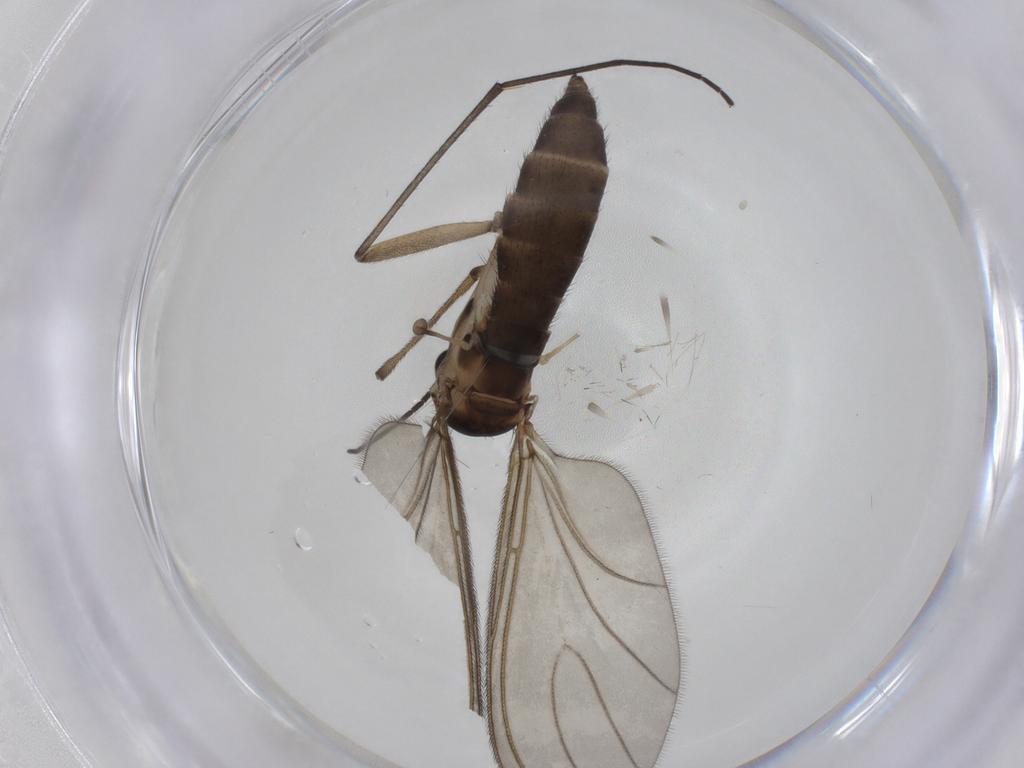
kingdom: Animalia
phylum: Arthropoda
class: Insecta
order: Diptera
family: Sciaridae
